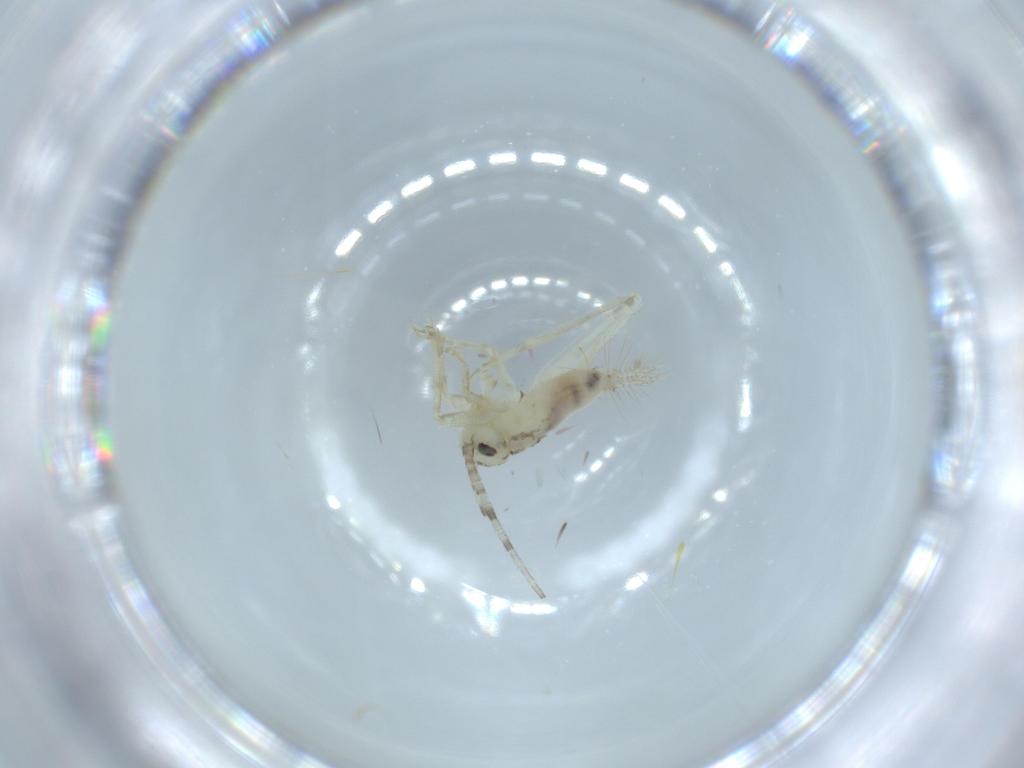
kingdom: Animalia
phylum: Arthropoda
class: Insecta
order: Orthoptera
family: Trigonidiidae
